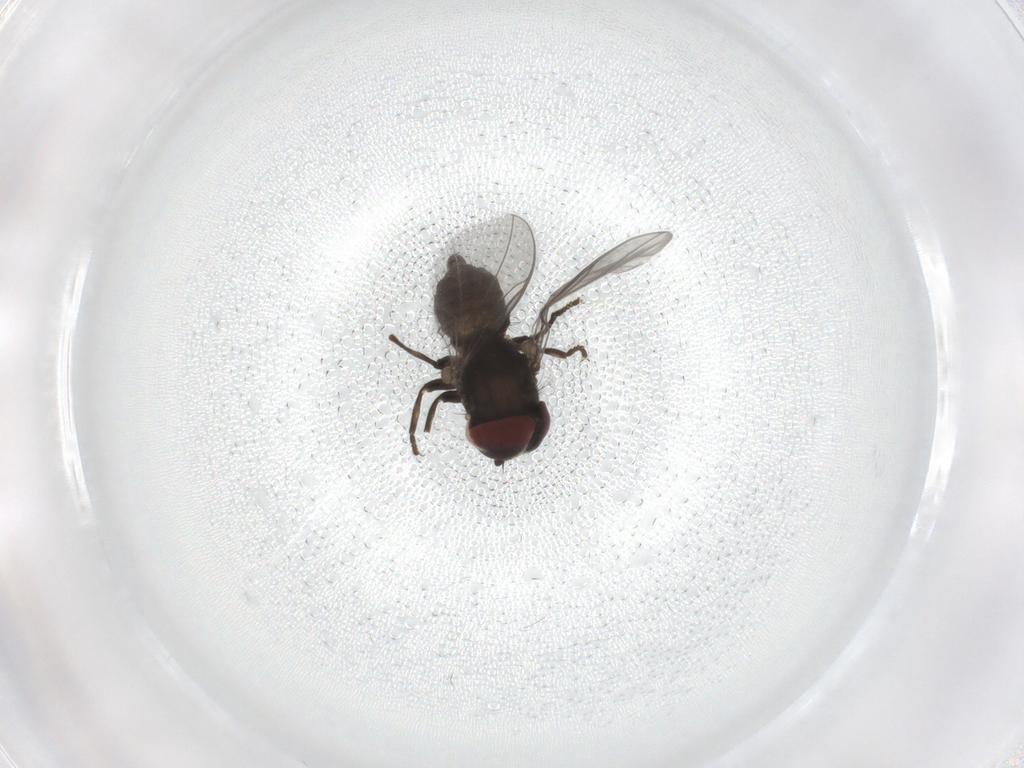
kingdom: Animalia
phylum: Arthropoda
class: Insecta
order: Diptera
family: Pipunculidae
